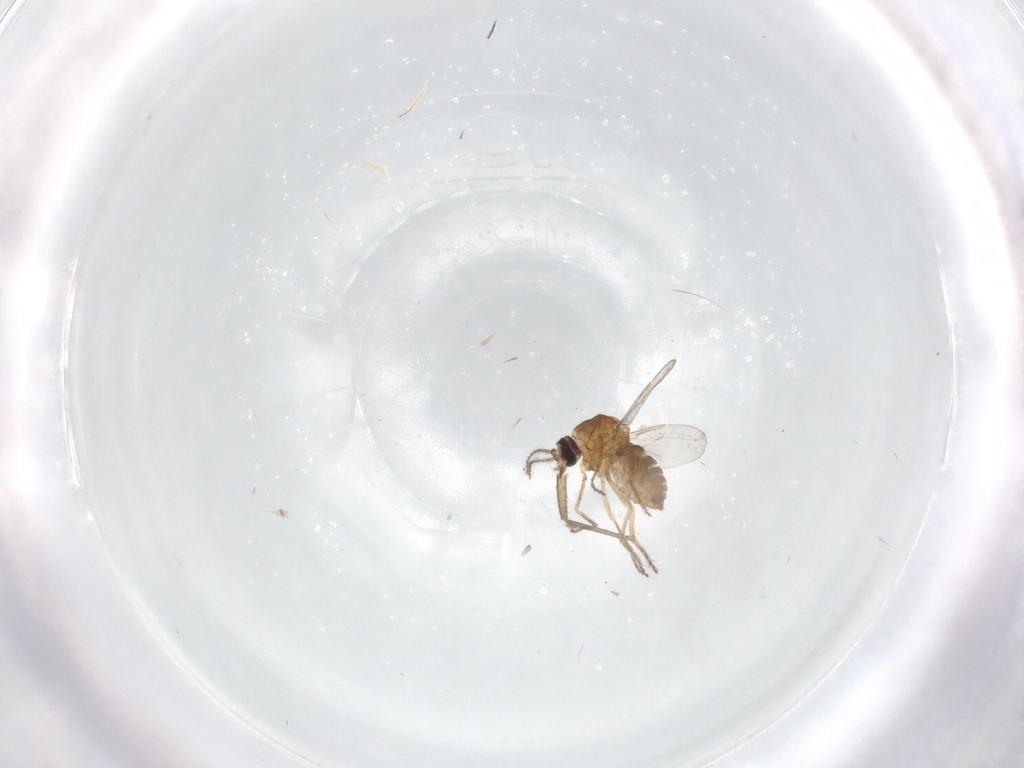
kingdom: Animalia
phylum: Arthropoda
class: Insecta
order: Diptera
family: Ceratopogonidae
